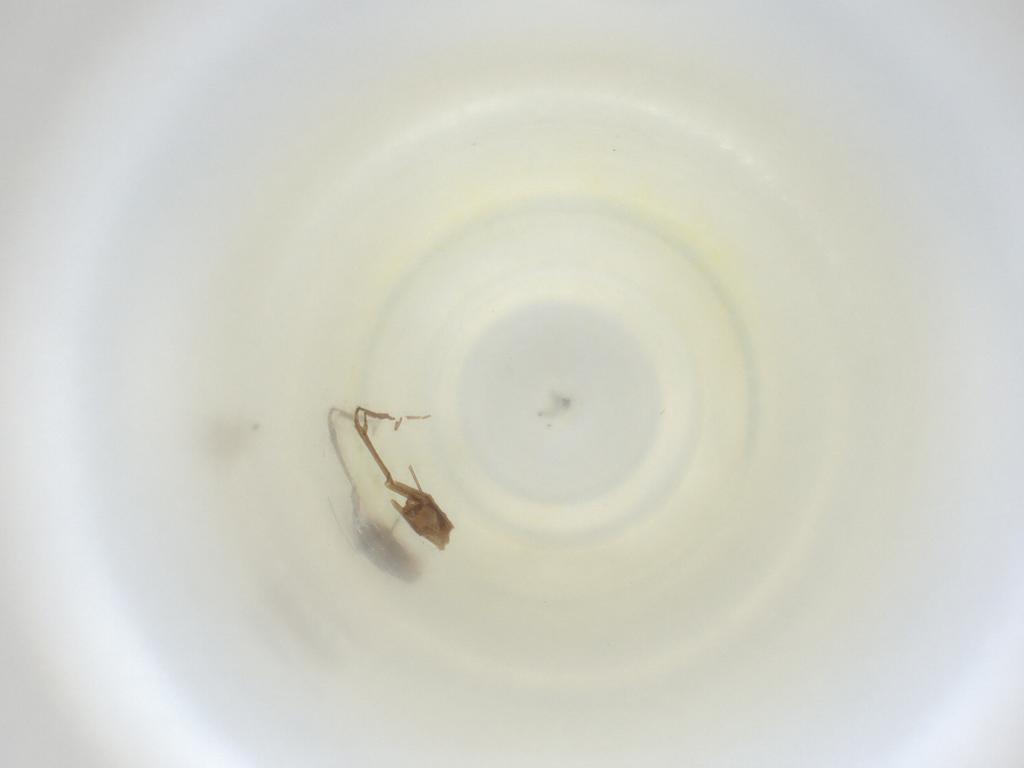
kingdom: Animalia
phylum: Arthropoda
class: Insecta
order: Diptera
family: Cecidomyiidae
